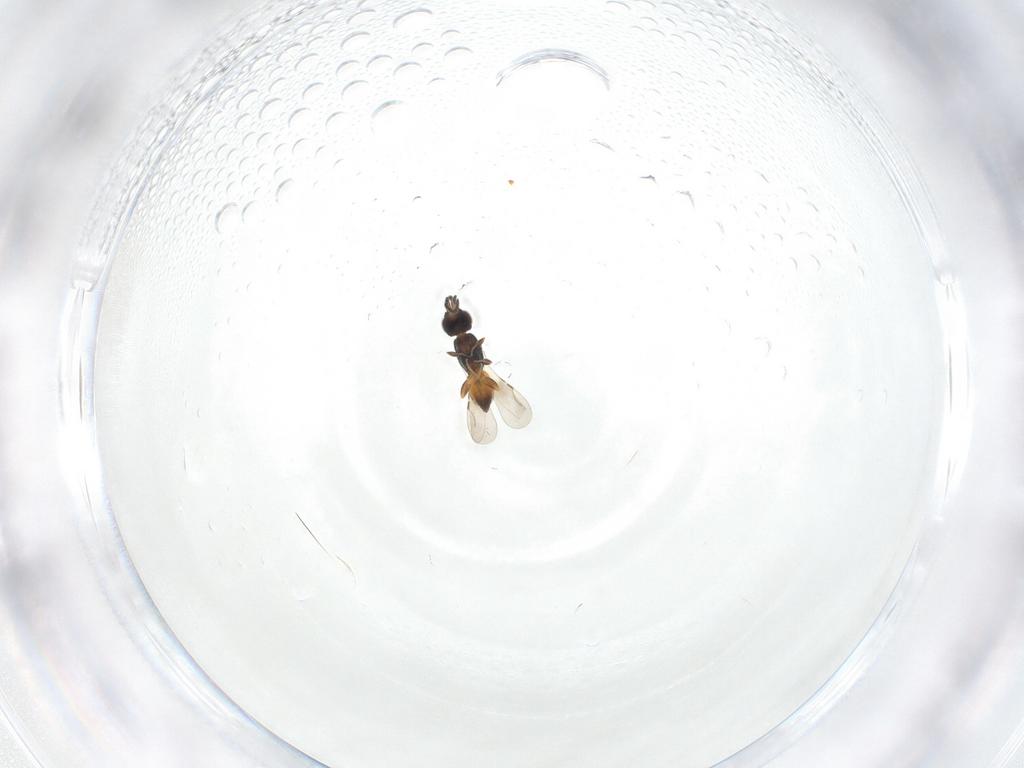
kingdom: Animalia
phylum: Arthropoda
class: Insecta
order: Hymenoptera
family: Ceraphronidae
